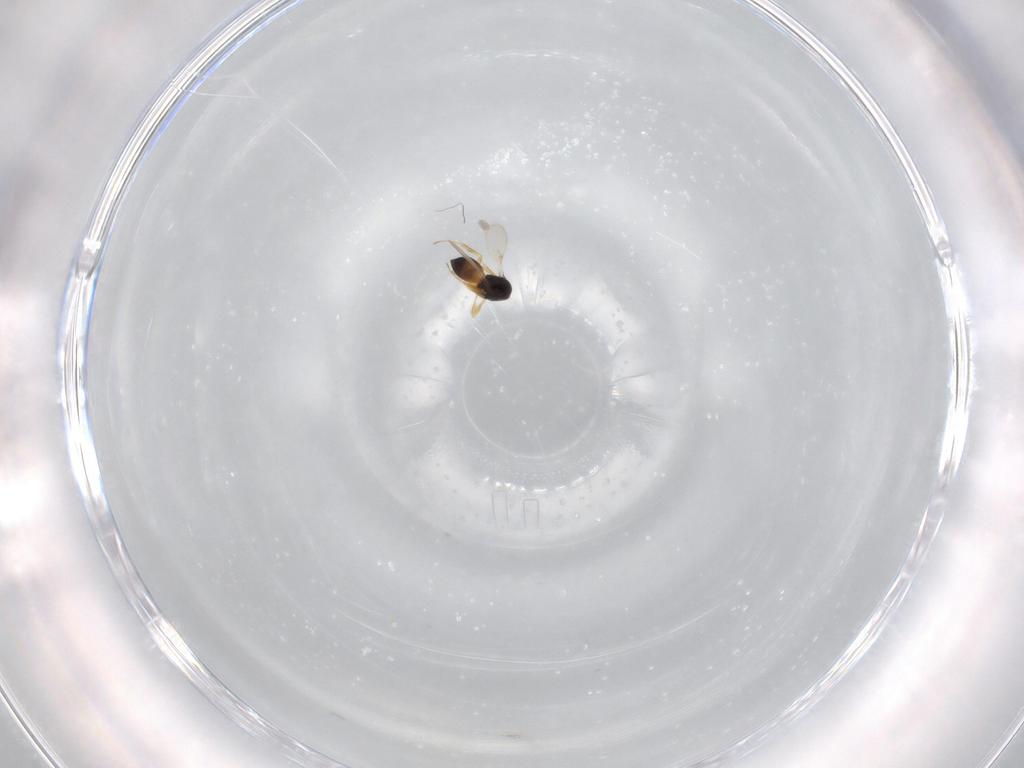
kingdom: Animalia
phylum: Arthropoda
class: Insecta
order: Hymenoptera
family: Scelionidae
